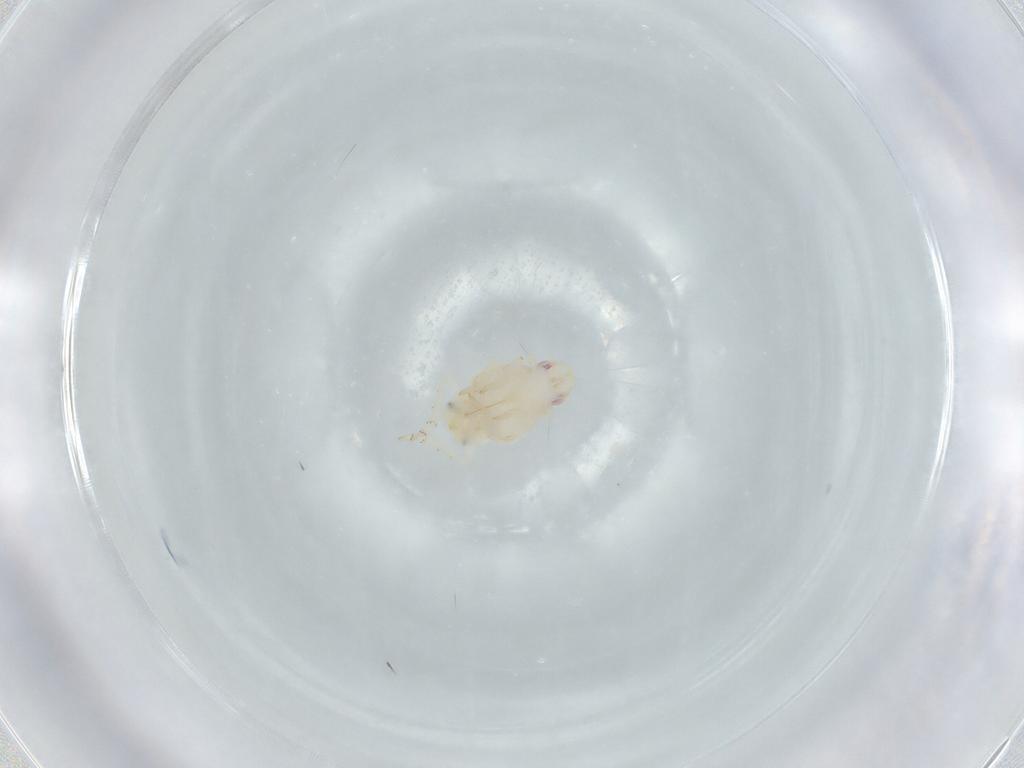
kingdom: Animalia
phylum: Arthropoda
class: Insecta
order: Hemiptera
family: Flatidae
